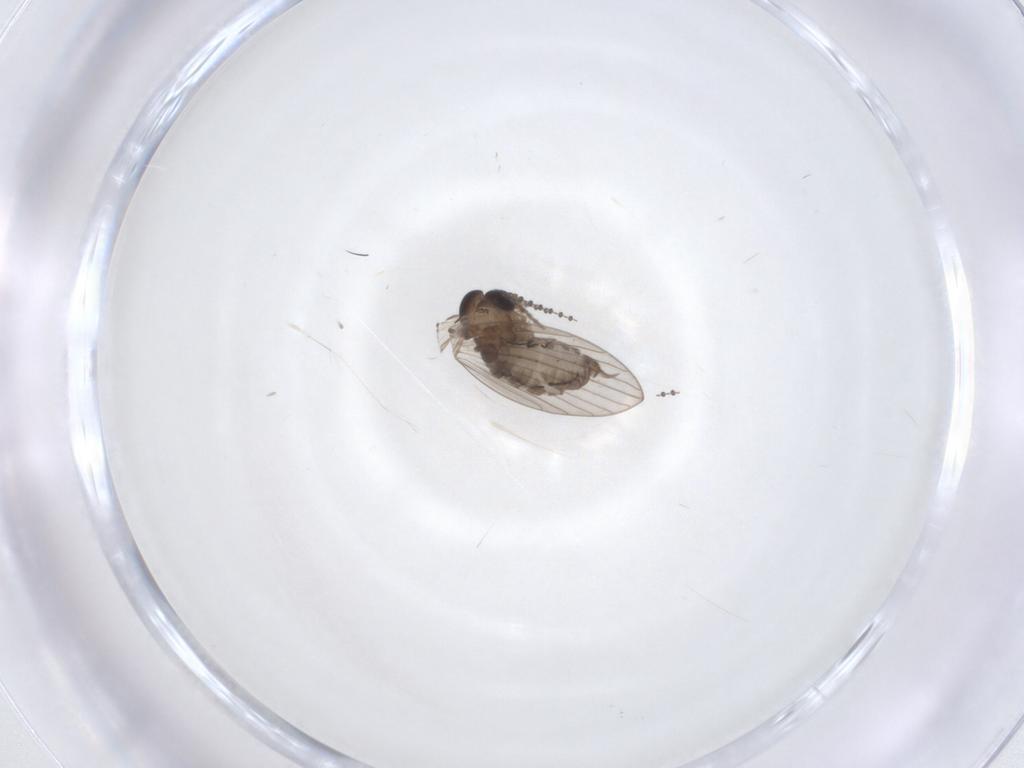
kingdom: Animalia
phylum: Arthropoda
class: Insecta
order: Diptera
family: Psychodidae
